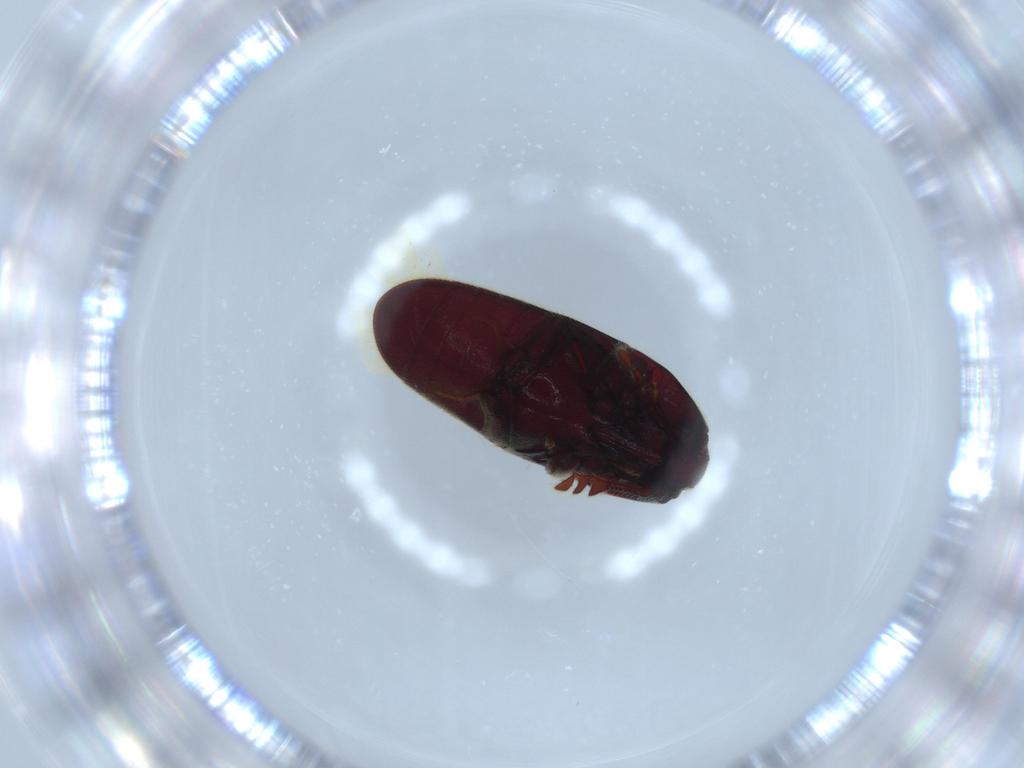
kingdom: Animalia
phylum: Arthropoda
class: Insecta
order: Coleoptera
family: Throscidae
